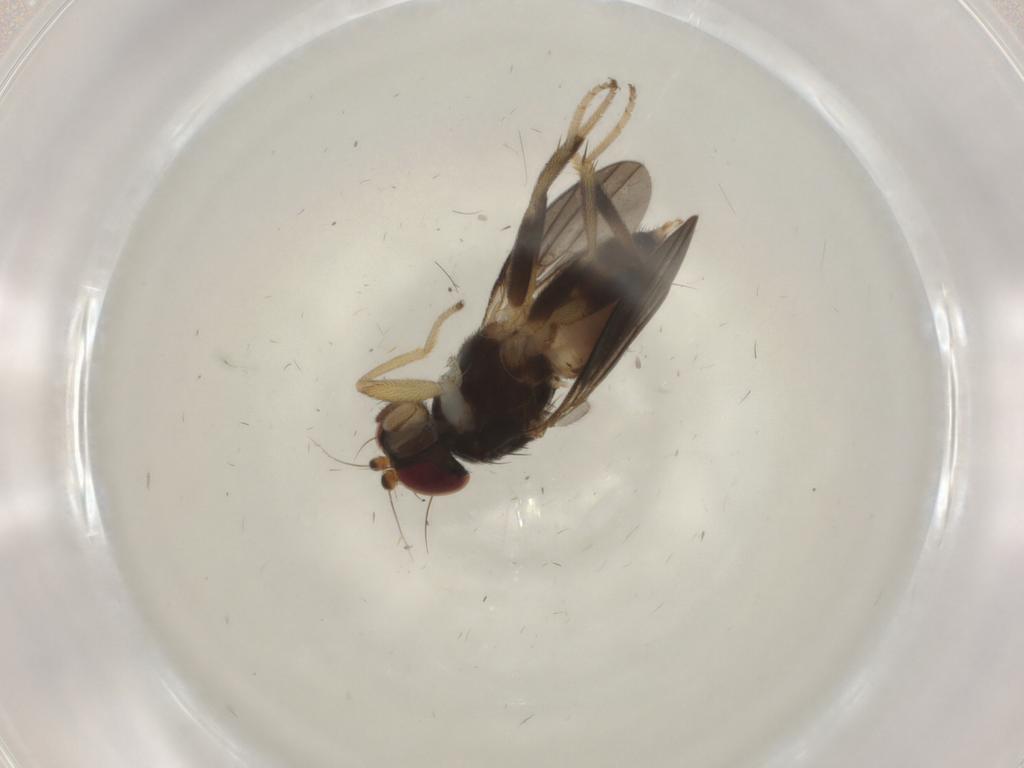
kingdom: Animalia
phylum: Arthropoda
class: Insecta
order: Diptera
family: Clusiidae
